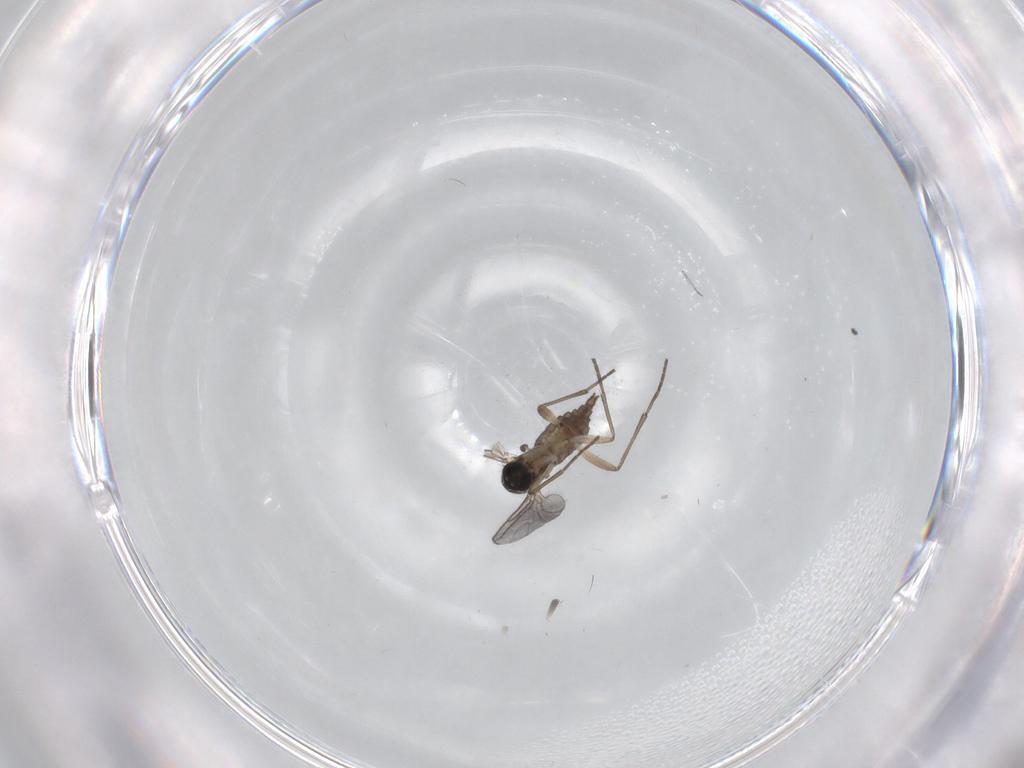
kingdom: Animalia
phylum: Arthropoda
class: Insecta
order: Diptera
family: Sciaridae
